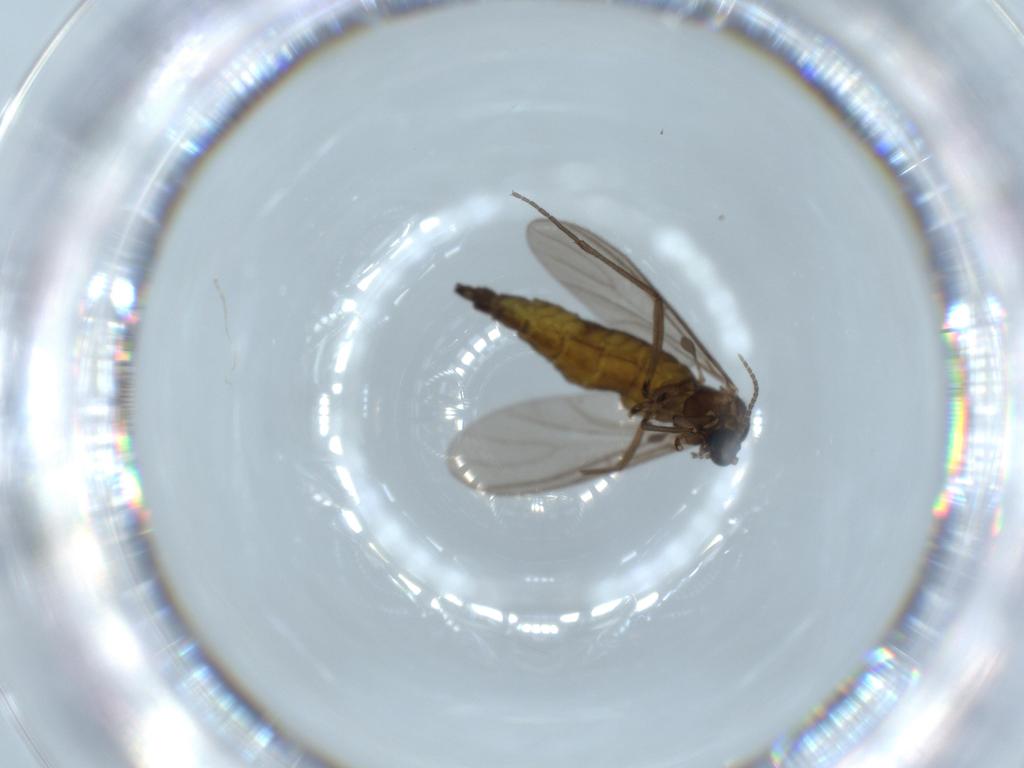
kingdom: Animalia
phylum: Arthropoda
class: Insecta
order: Diptera
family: Sciaridae
